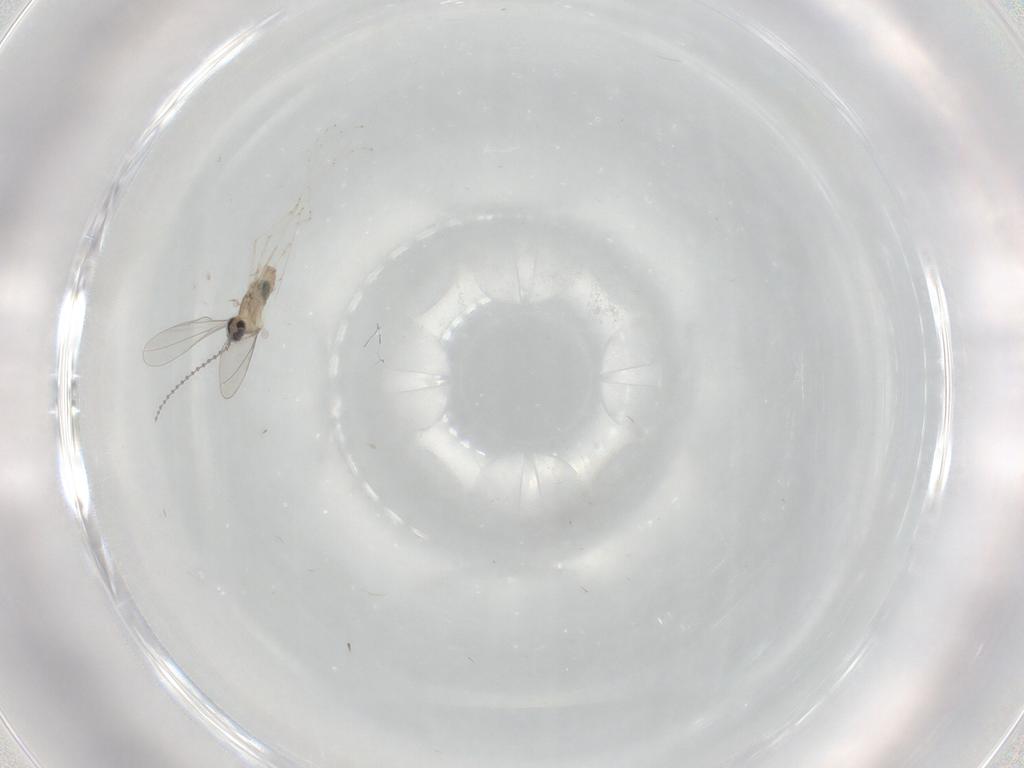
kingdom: Animalia
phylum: Arthropoda
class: Insecta
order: Diptera
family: Cecidomyiidae
